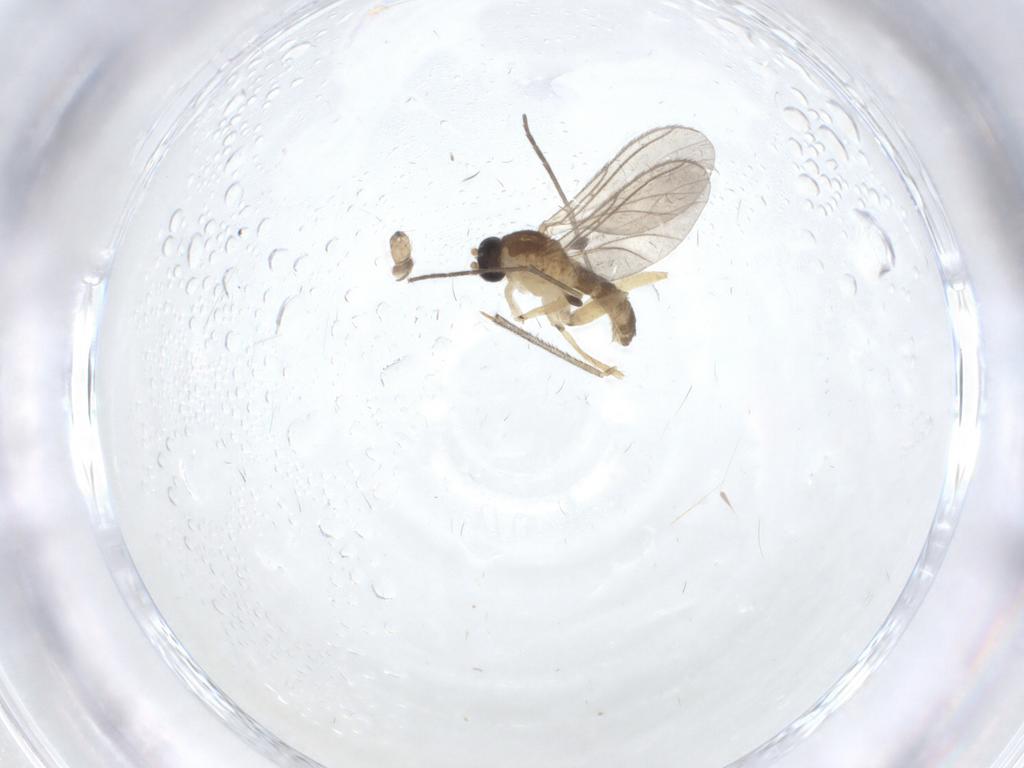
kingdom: Animalia
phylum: Arthropoda
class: Insecta
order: Diptera
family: Sciaridae
